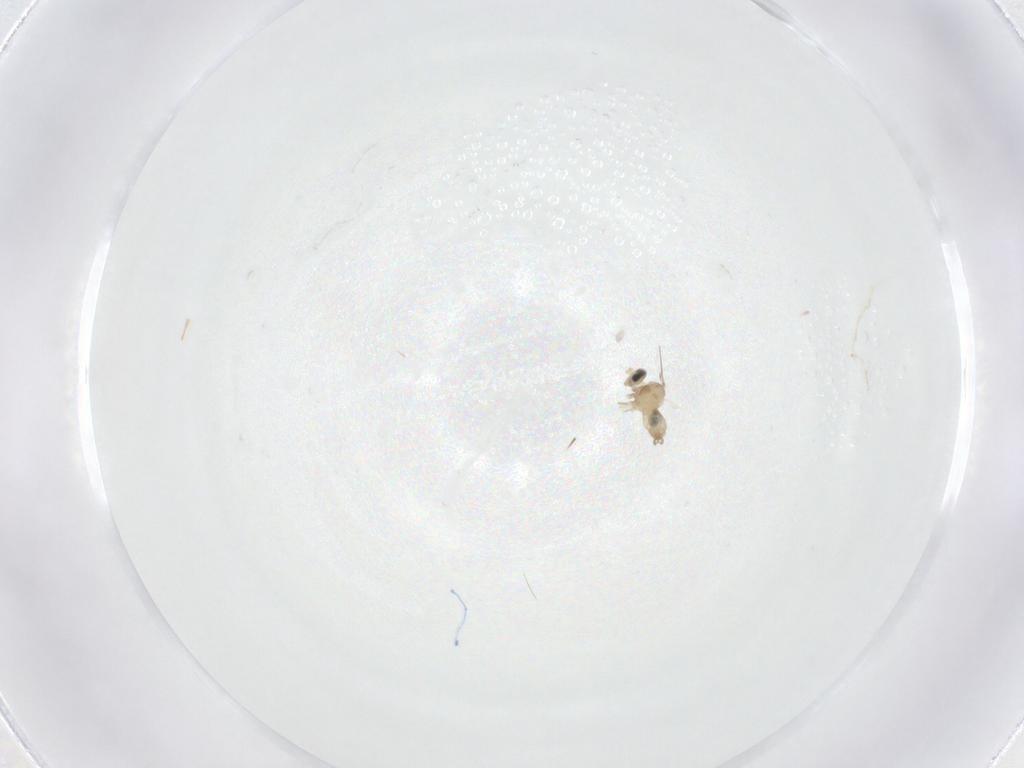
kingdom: Animalia
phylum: Arthropoda
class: Insecta
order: Diptera
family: Cecidomyiidae
